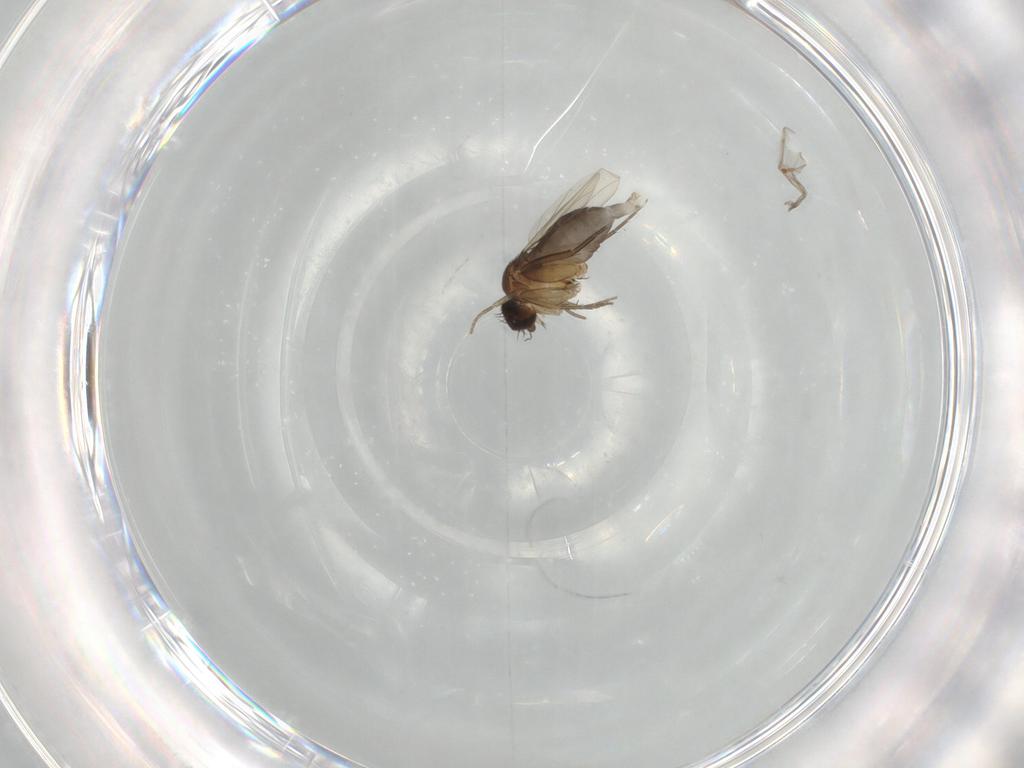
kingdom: Animalia
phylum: Arthropoda
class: Insecta
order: Diptera
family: Phoridae
